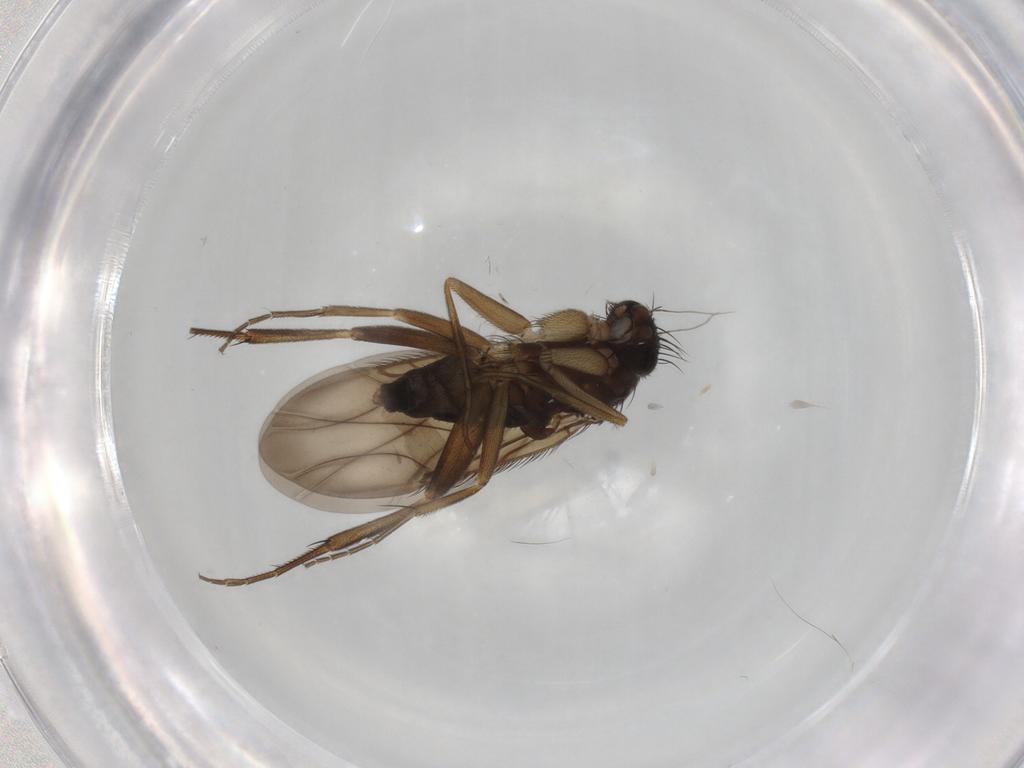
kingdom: Animalia
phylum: Arthropoda
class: Insecta
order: Diptera
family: Phoridae
